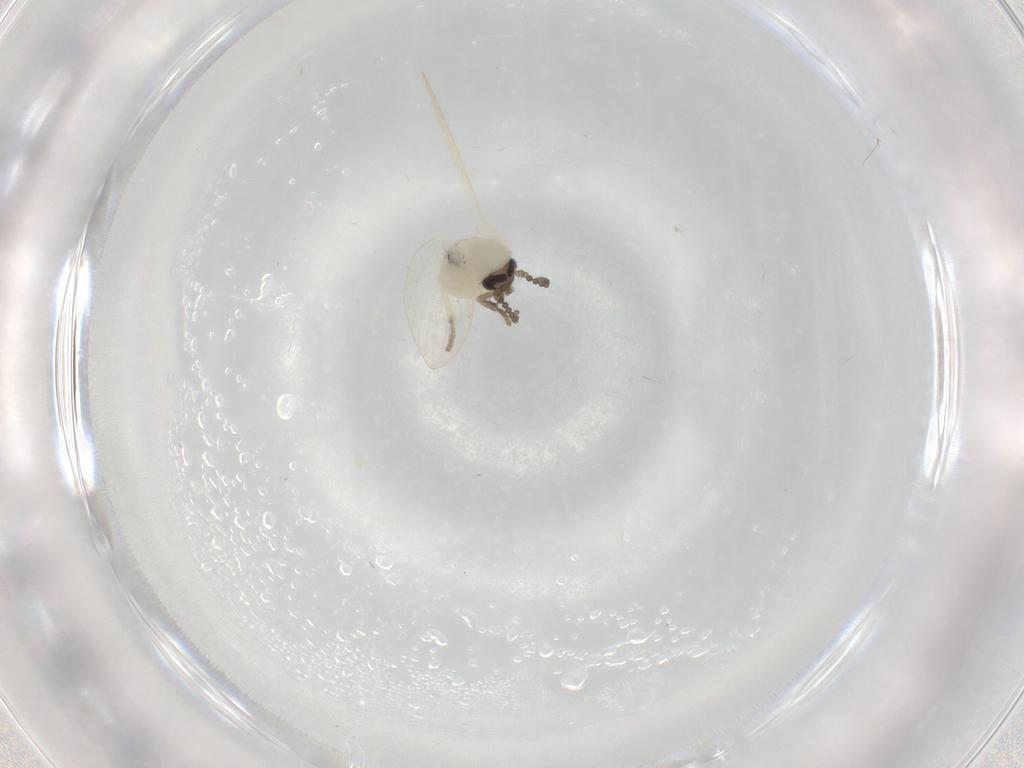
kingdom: Animalia
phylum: Arthropoda
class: Insecta
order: Diptera
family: Psychodidae
